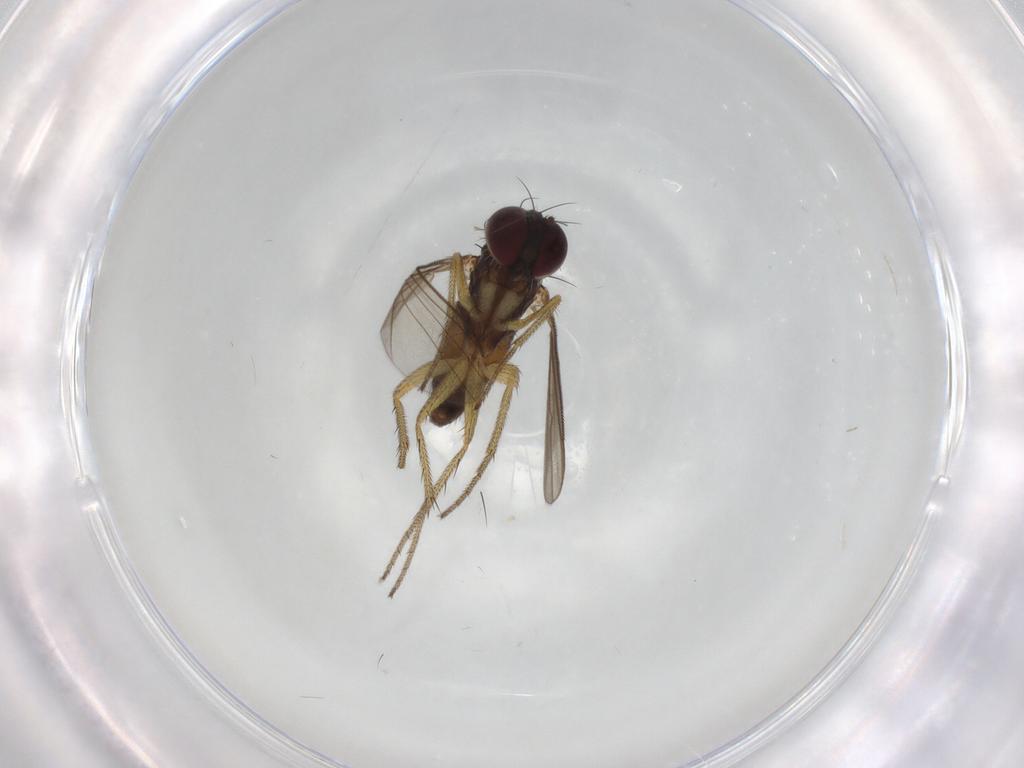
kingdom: Animalia
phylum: Arthropoda
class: Insecta
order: Diptera
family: Dolichopodidae
